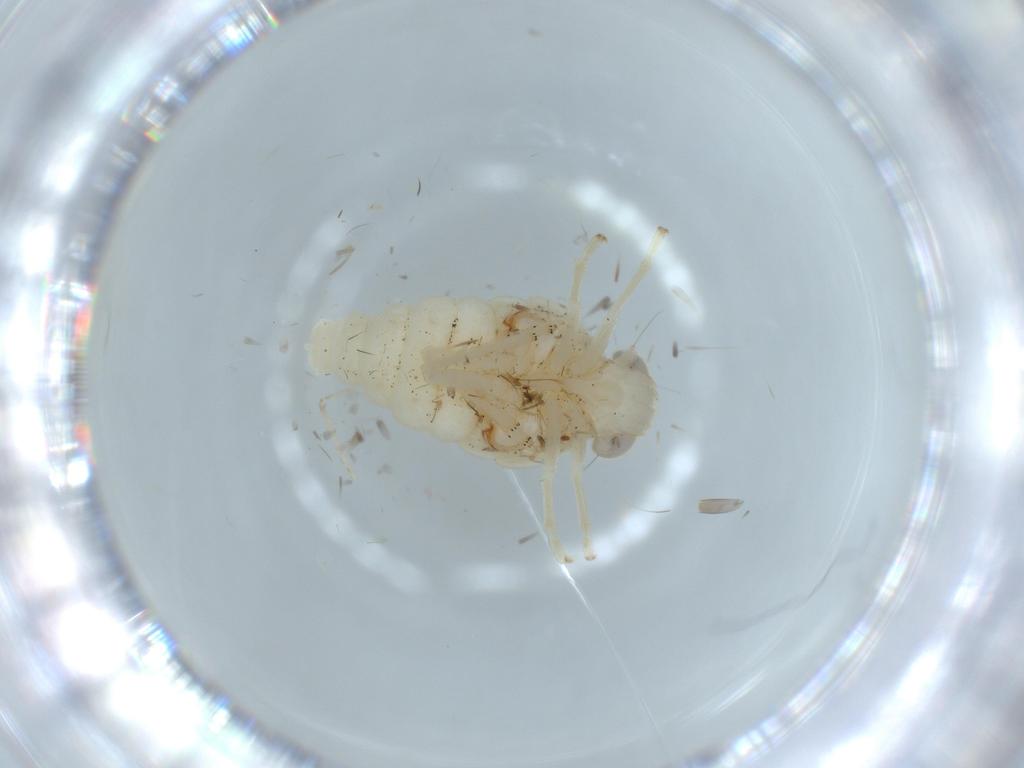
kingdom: Animalia
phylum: Arthropoda
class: Insecta
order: Hemiptera
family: Nogodinidae
